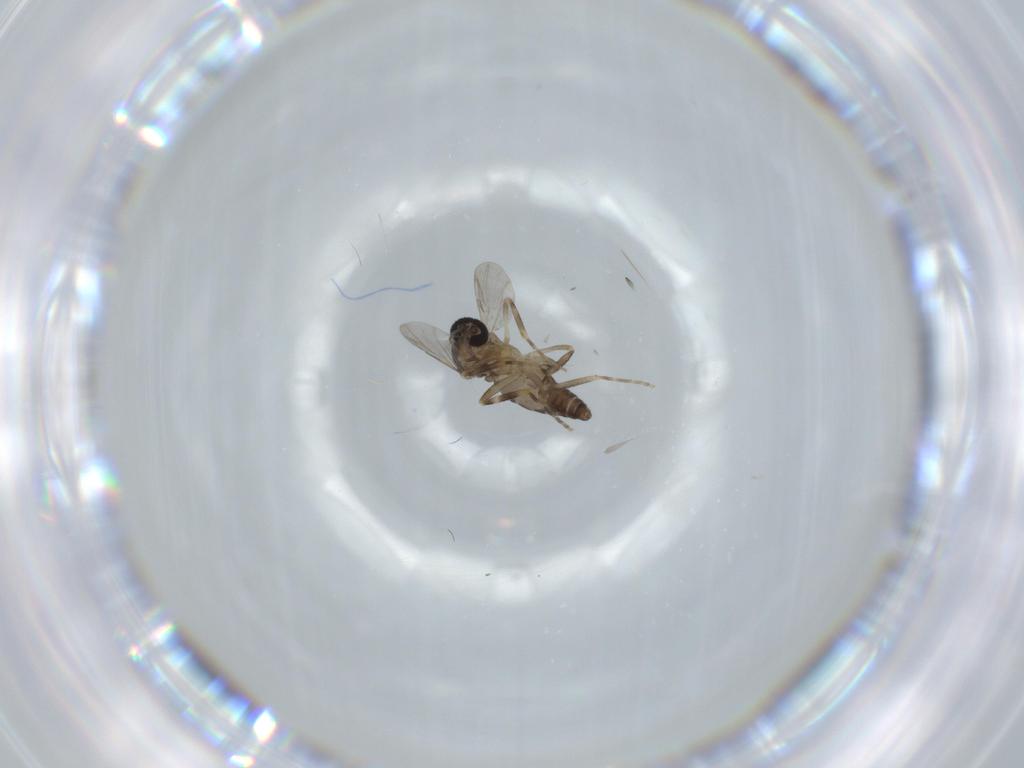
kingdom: Animalia
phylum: Arthropoda
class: Insecta
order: Diptera
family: Ceratopogonidae
